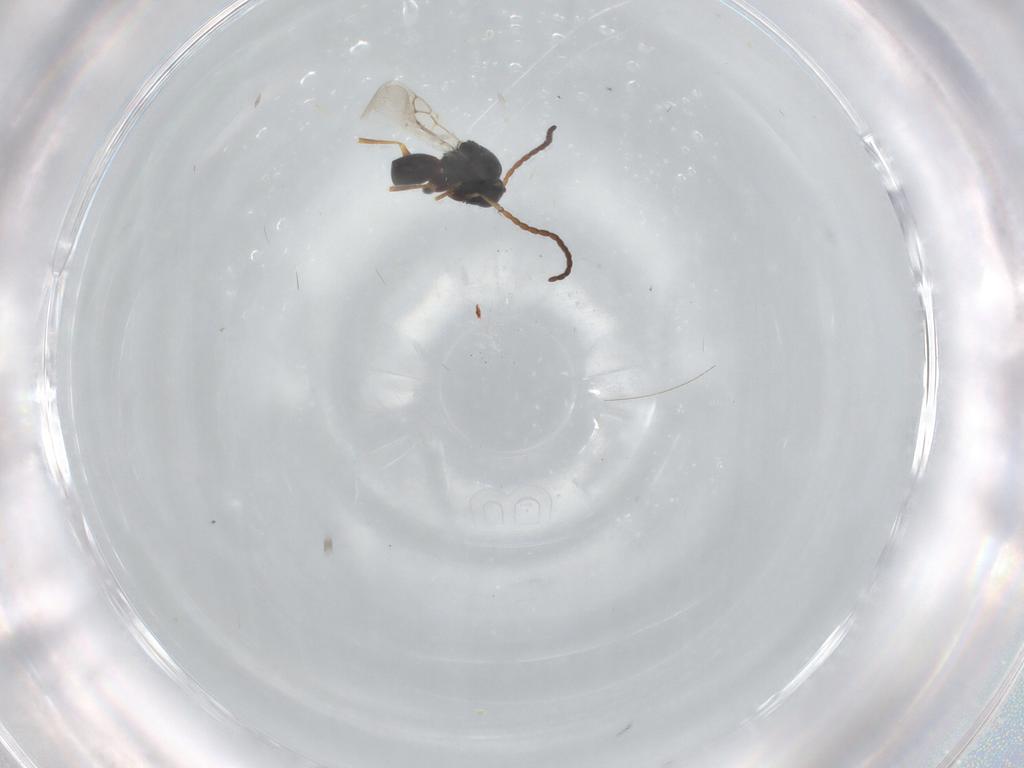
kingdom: Animalia
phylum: Arthropoda
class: Insecta
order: Hymenoptera
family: Figitidae
